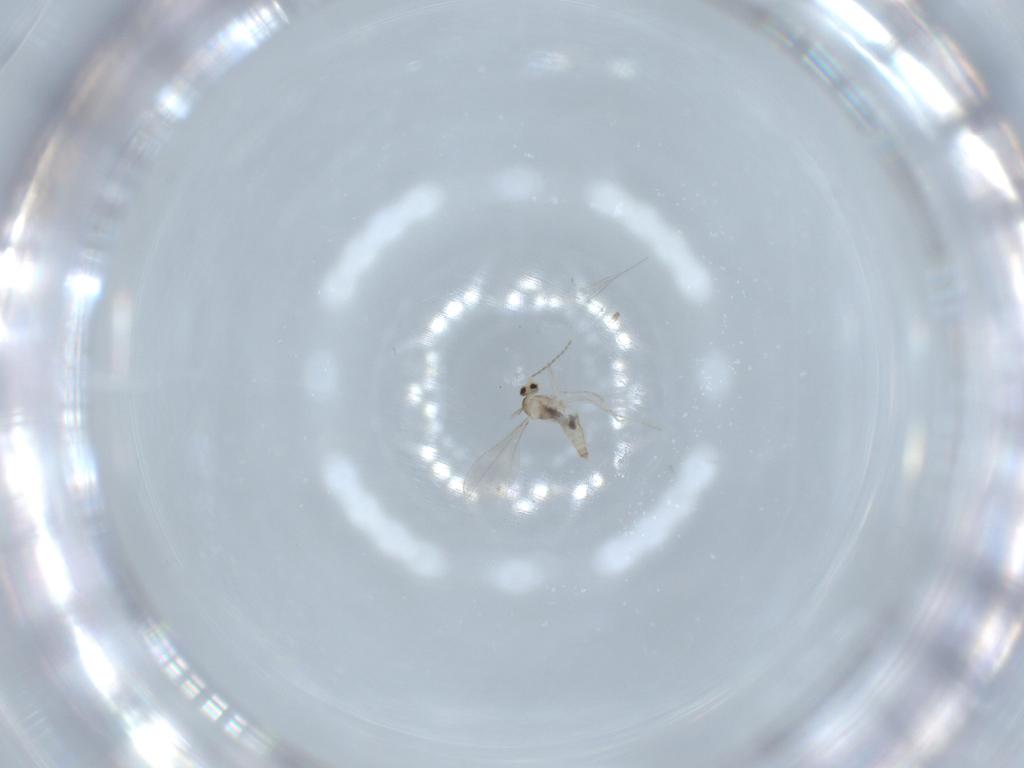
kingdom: Animalia
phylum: Arthropoda
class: Insecta
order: Diptera
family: Cecidomyiidae
